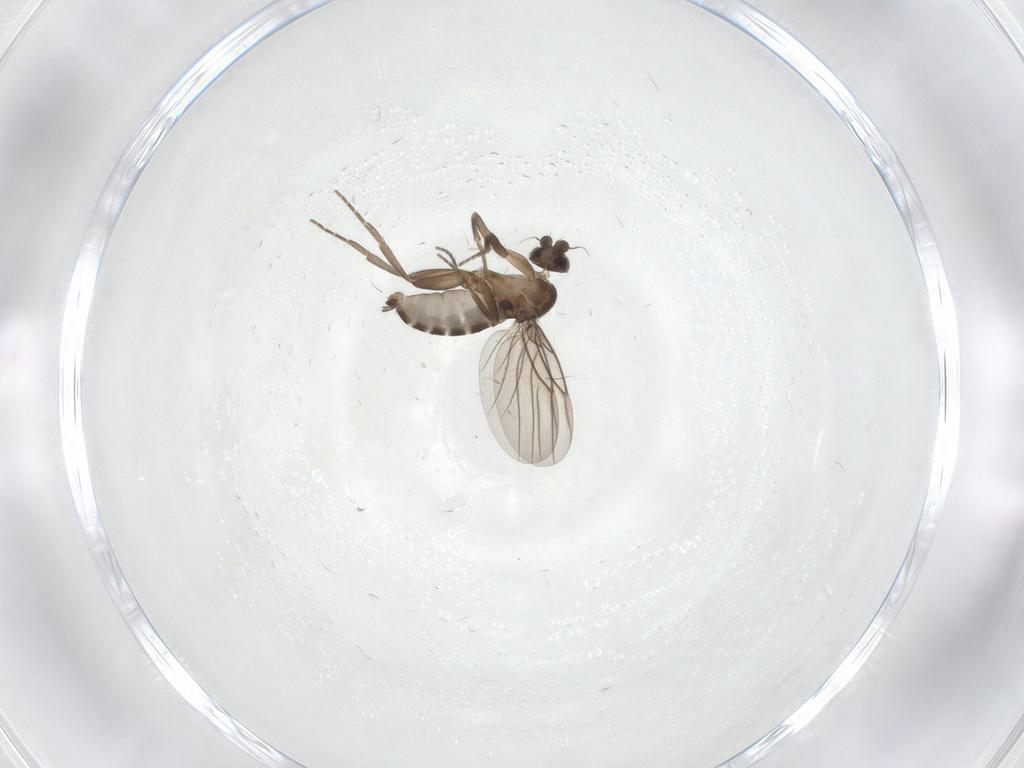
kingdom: Animalia
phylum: Arthropoda
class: Insecta
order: Diptera
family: Phoridae
